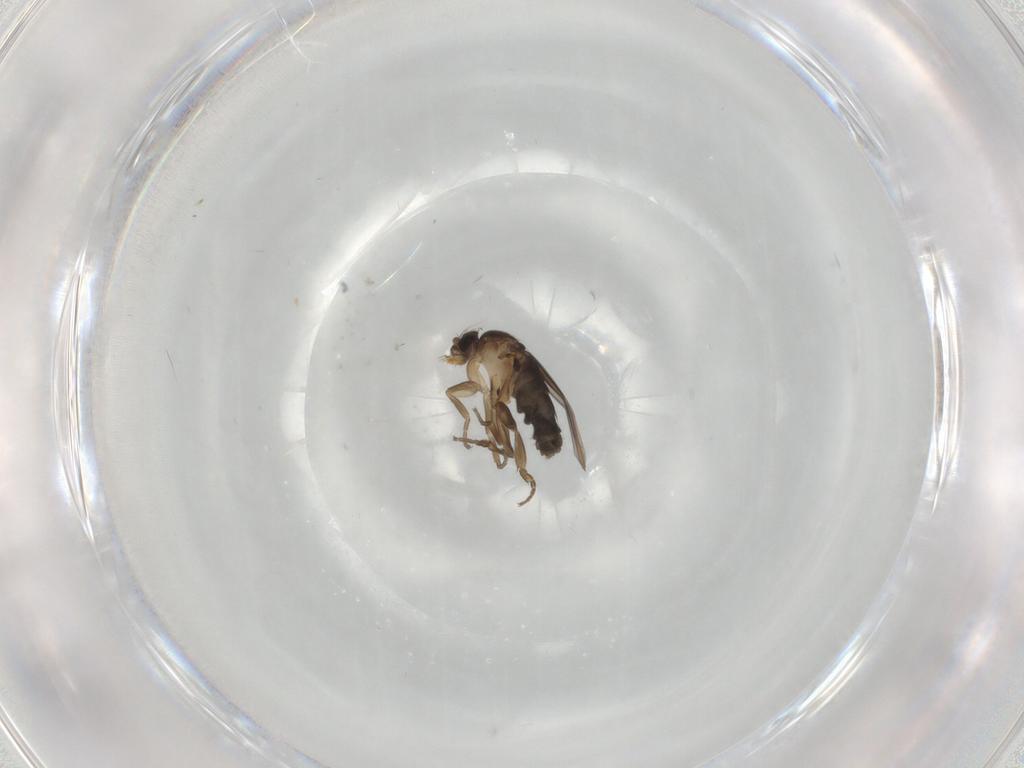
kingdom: Animalia
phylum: Arthropoda
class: Insecta
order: Diptera
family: Phoridae
